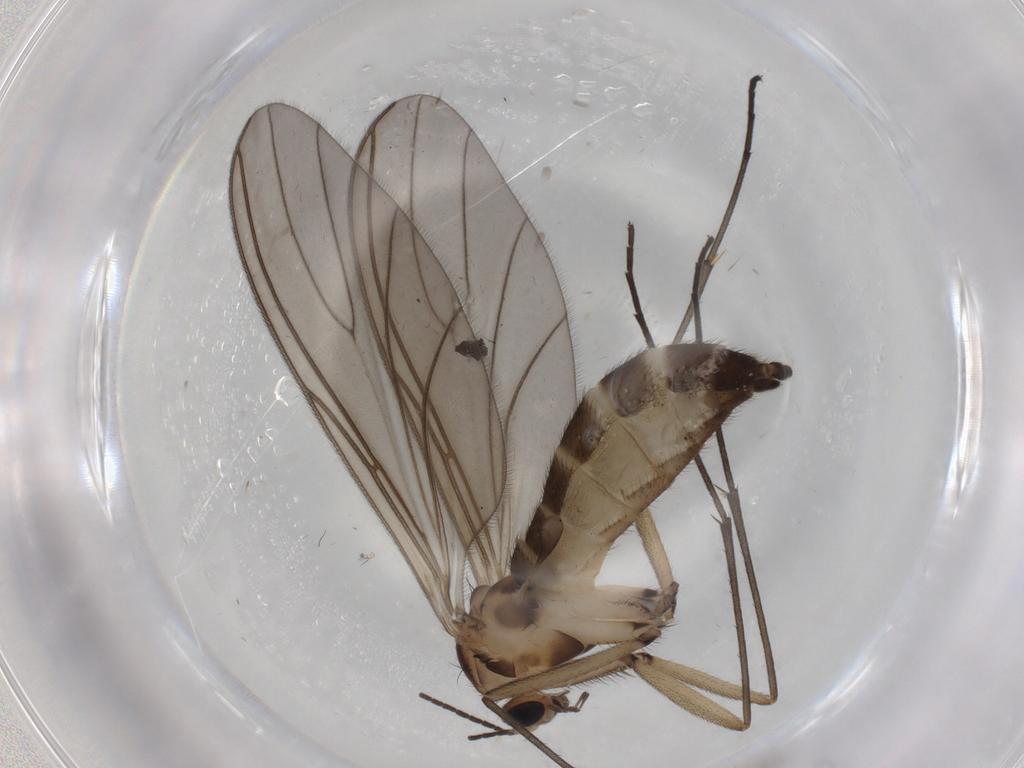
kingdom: Animalia
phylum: Arthropoda
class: Insecta
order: Diptera
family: Sciaridae
